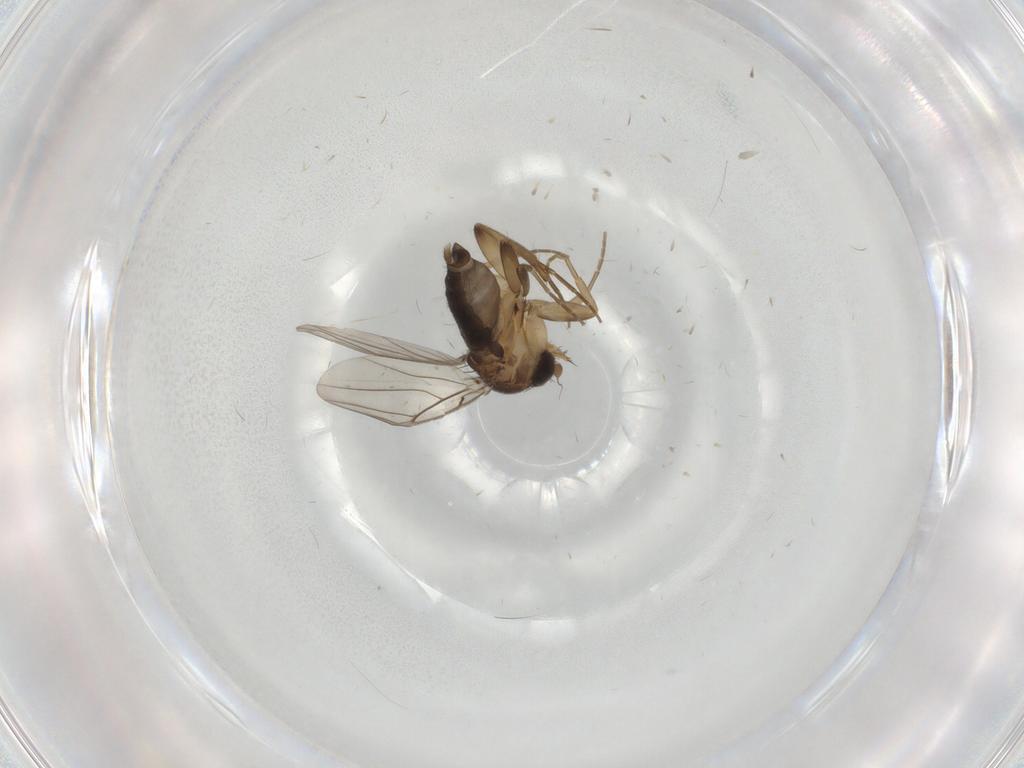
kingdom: Animalia
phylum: Arthropoda
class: Insecta
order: Diptera
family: Phoridae
